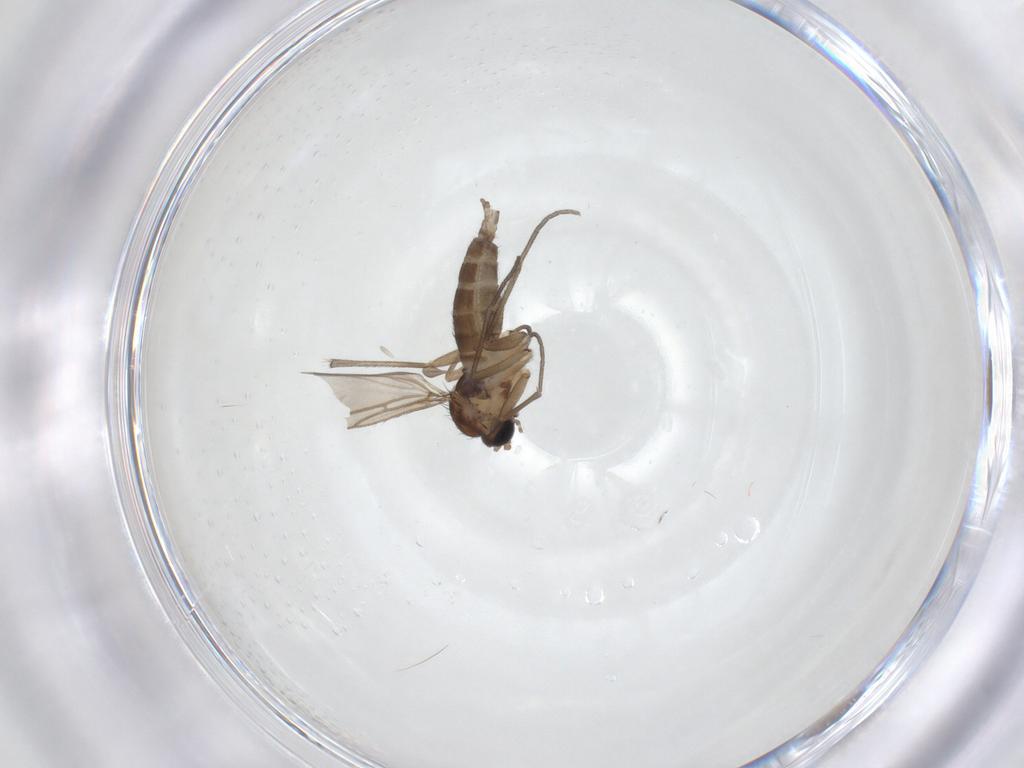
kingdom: Animalia
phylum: Arthropoda
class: Insecta
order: Diptera
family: Sciaridae
